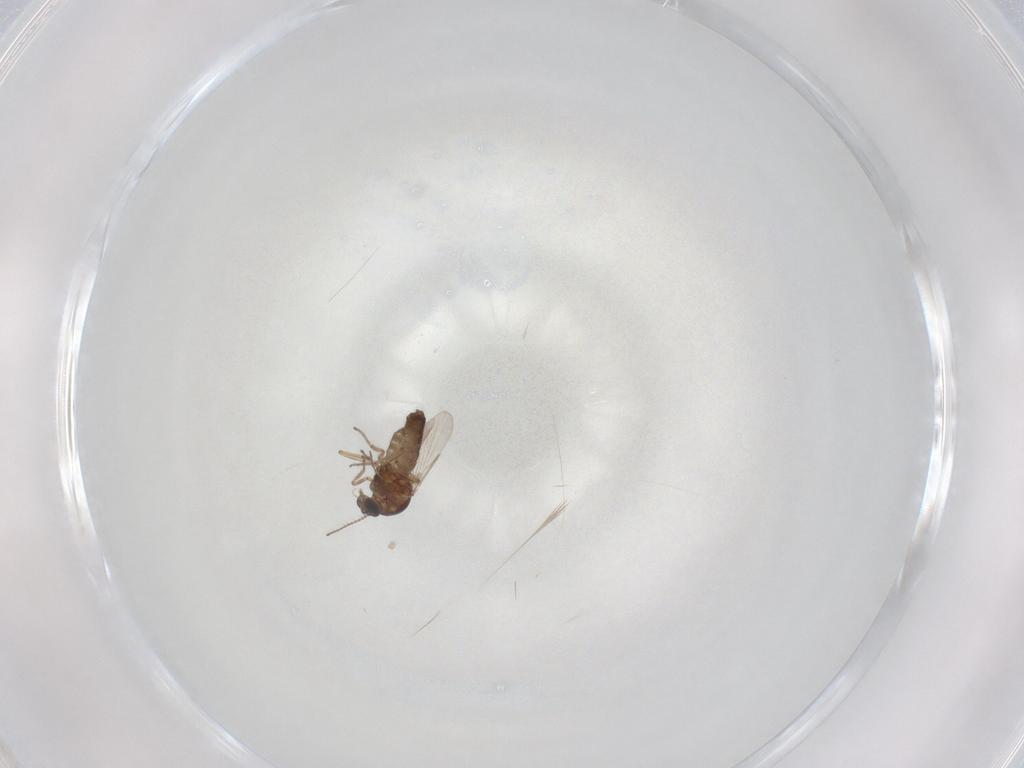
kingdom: Animalia
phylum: Arthropoda
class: Insecta
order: Diptera
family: Ceratopogonidae
